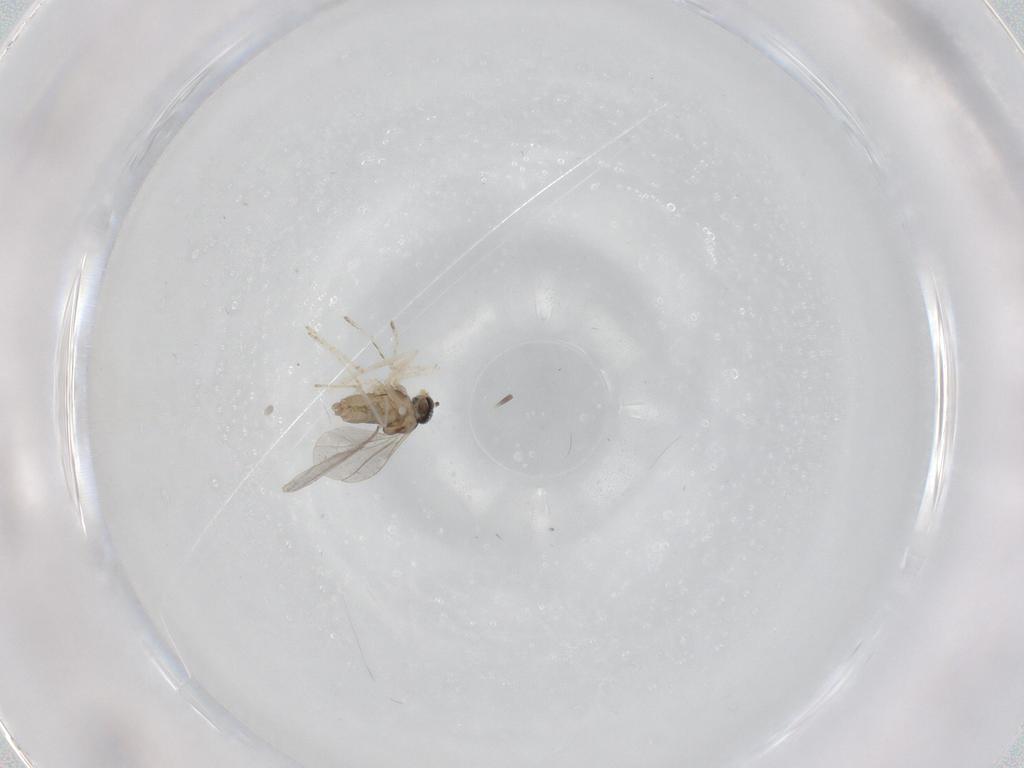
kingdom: Animalia
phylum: Arthropoda
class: Insecta
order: Diptera
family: Cecidomyiidae
